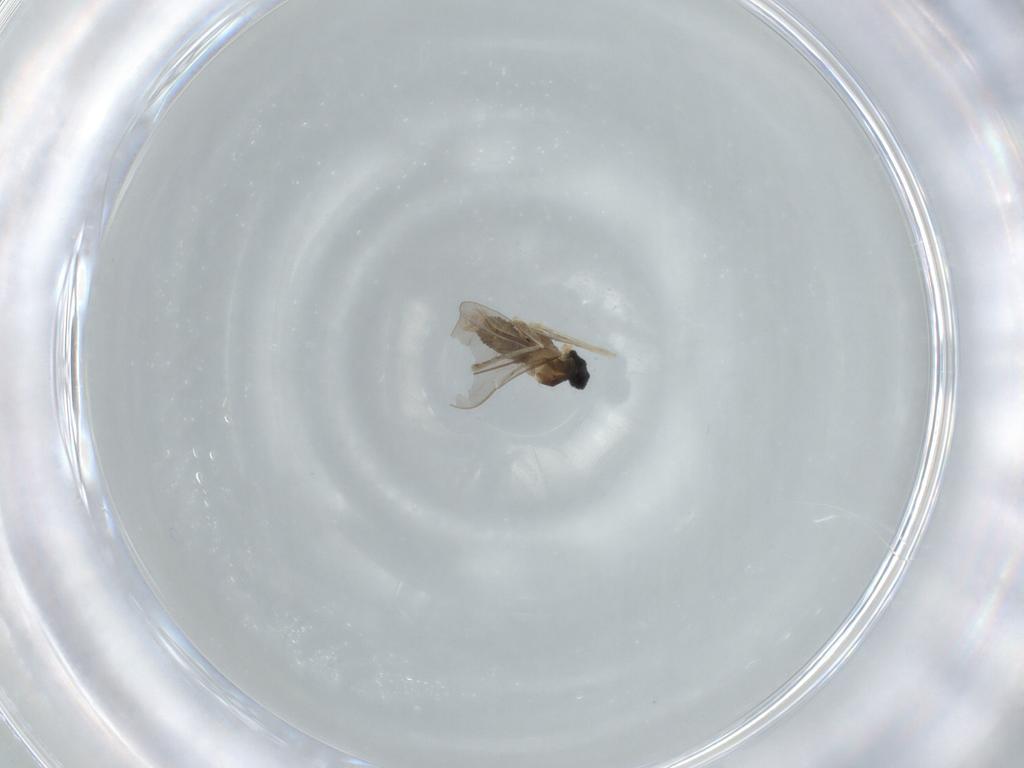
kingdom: Animalia
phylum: Arthropoda
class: Insecta
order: Diptera
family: Cecidomyiidae
